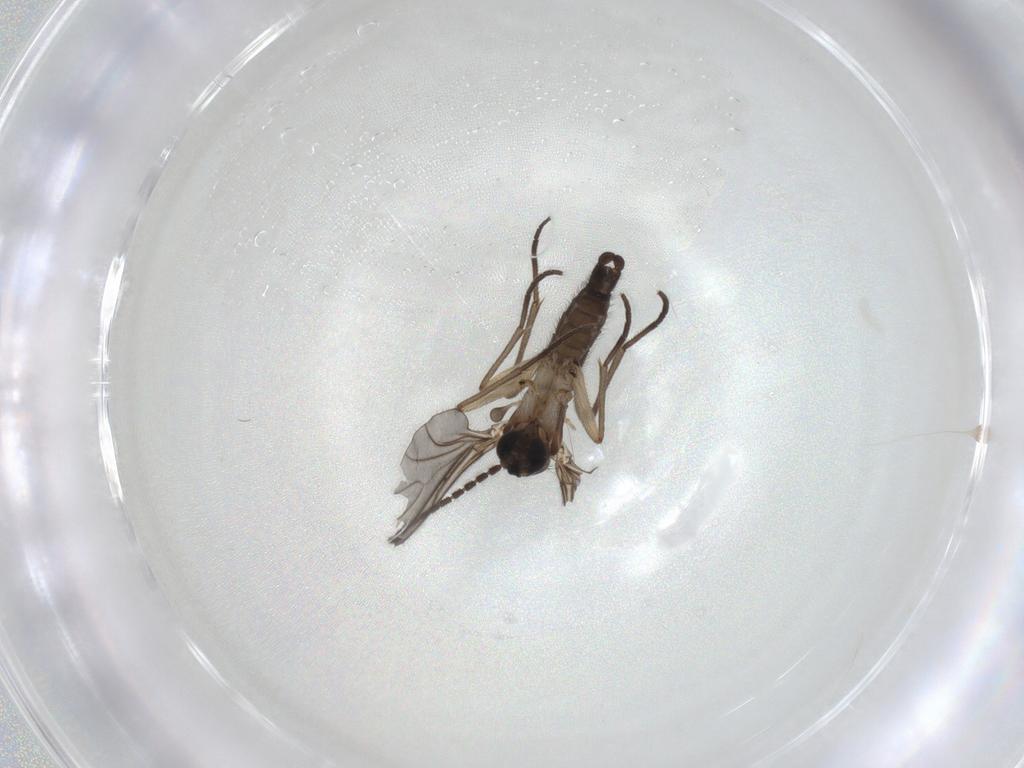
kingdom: Animalia
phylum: Arthropoda
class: Insecta
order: Diptera
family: Sciaridae
